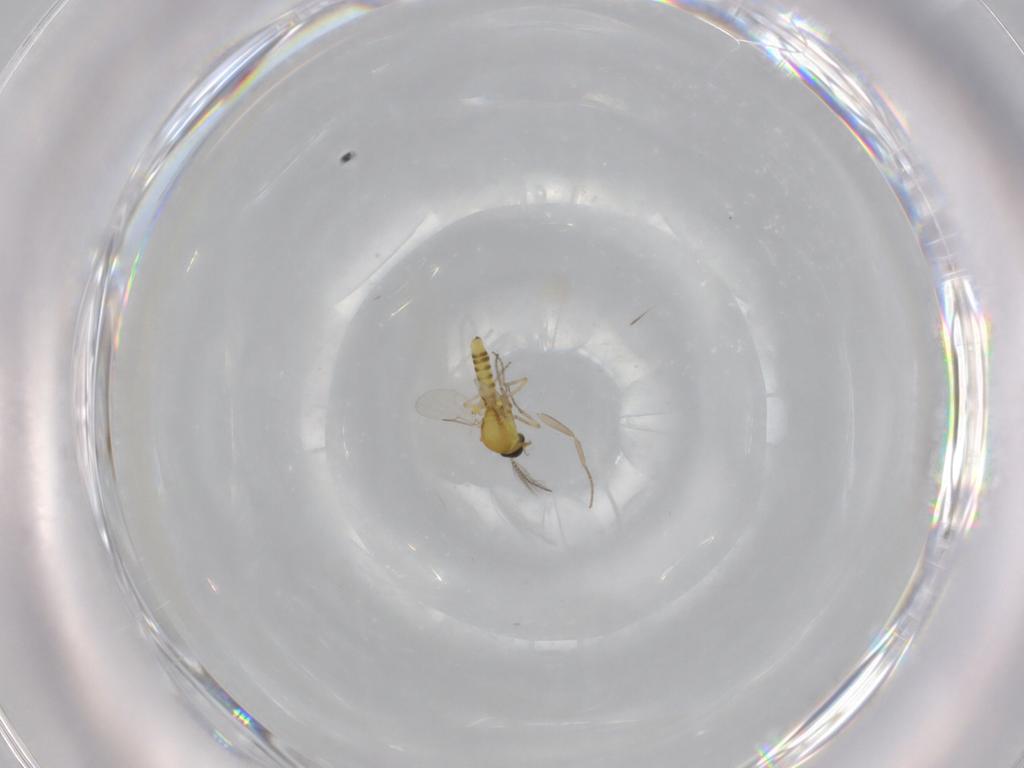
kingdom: Animalia
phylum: Arthropoda
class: Insecta
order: Diptera
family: Ceratopogonidae
